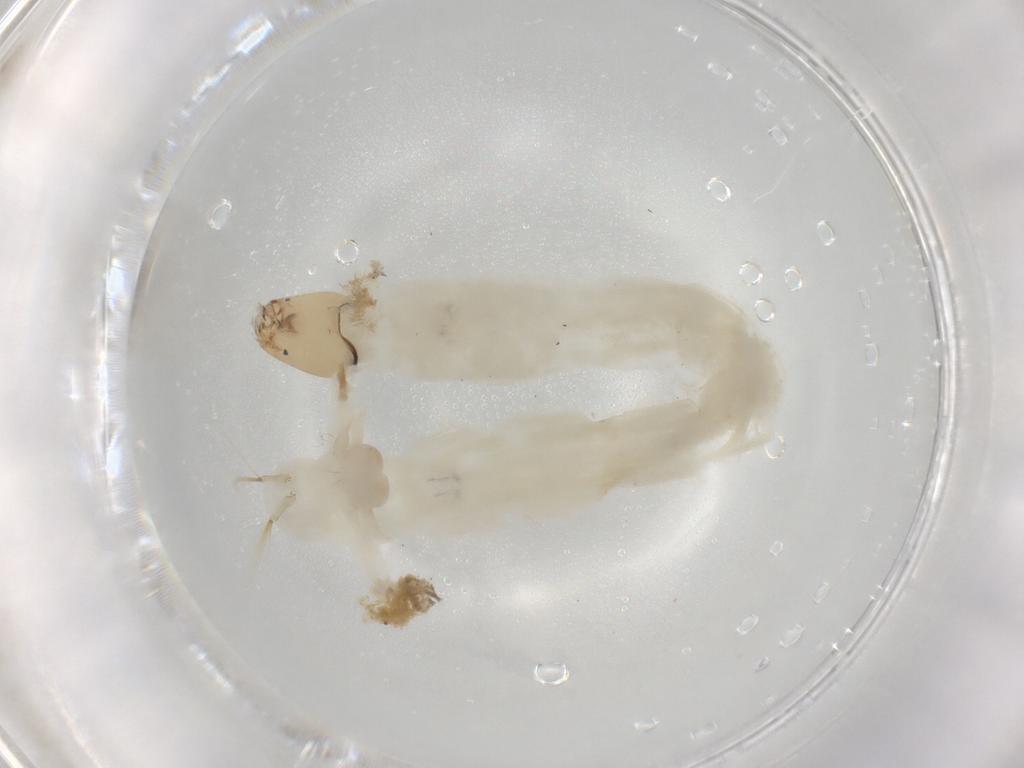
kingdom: Animalia
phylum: Arthropoda
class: Insecta
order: Diptera
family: Chironomidae
